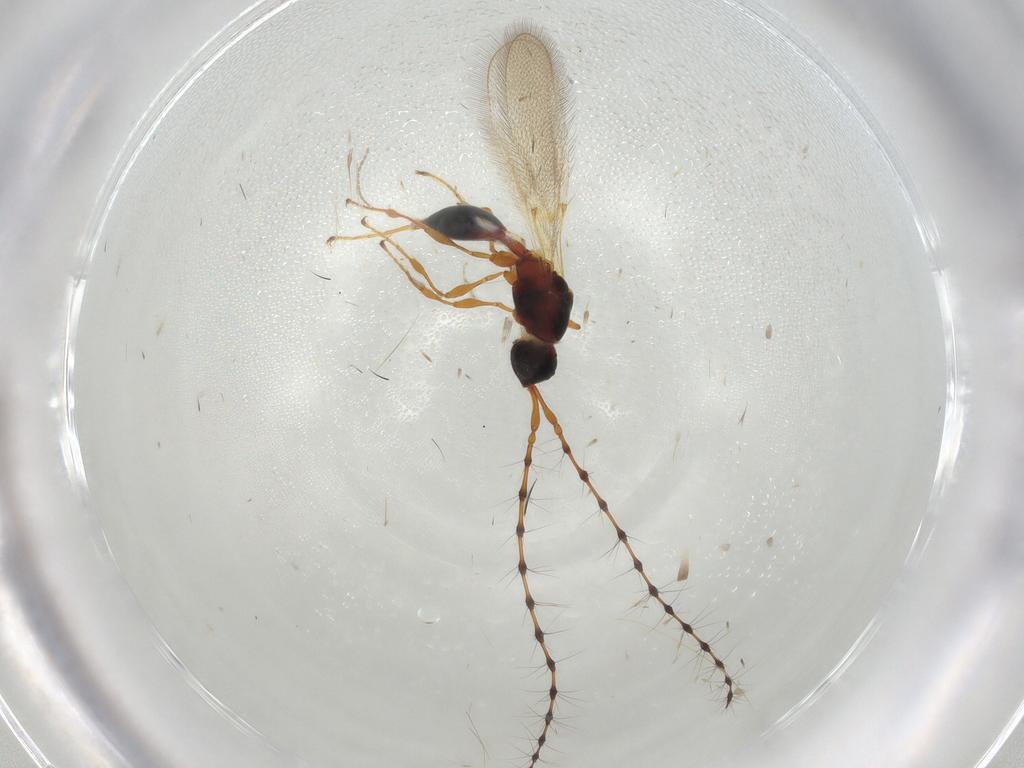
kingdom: Animalia
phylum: Arthropoda
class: Insecta
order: Hymenoptera
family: Diapriidae
